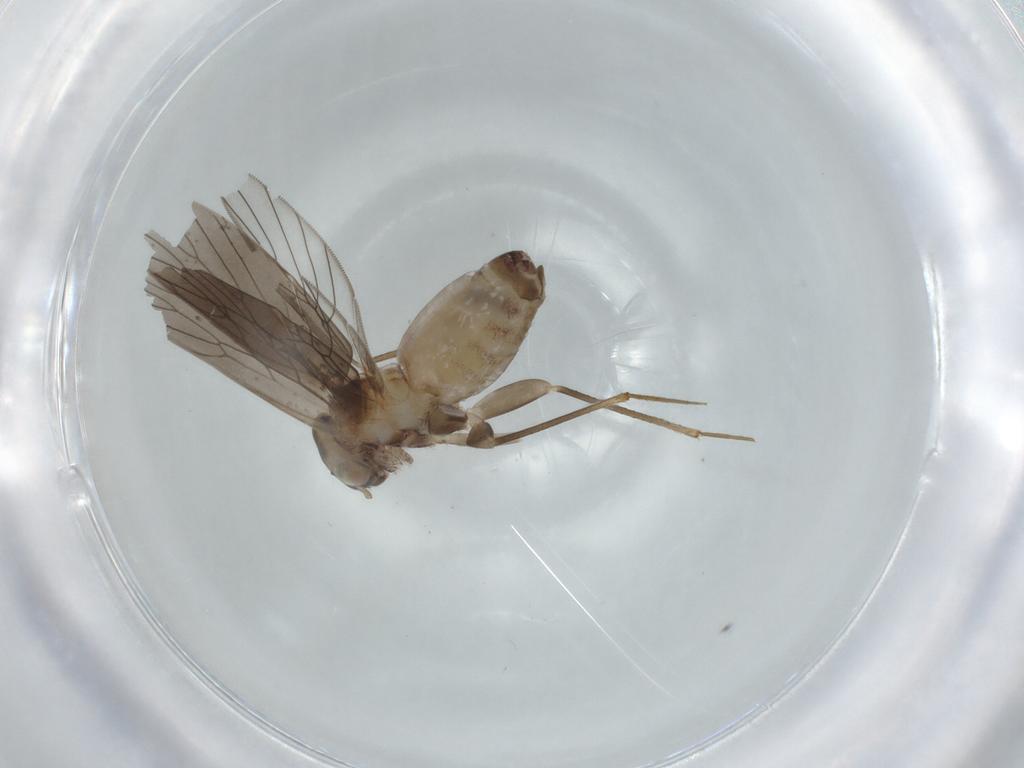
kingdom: Animalia
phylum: Arthropoda
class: Insecta
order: Psocodea
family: Lepidopsocidae
